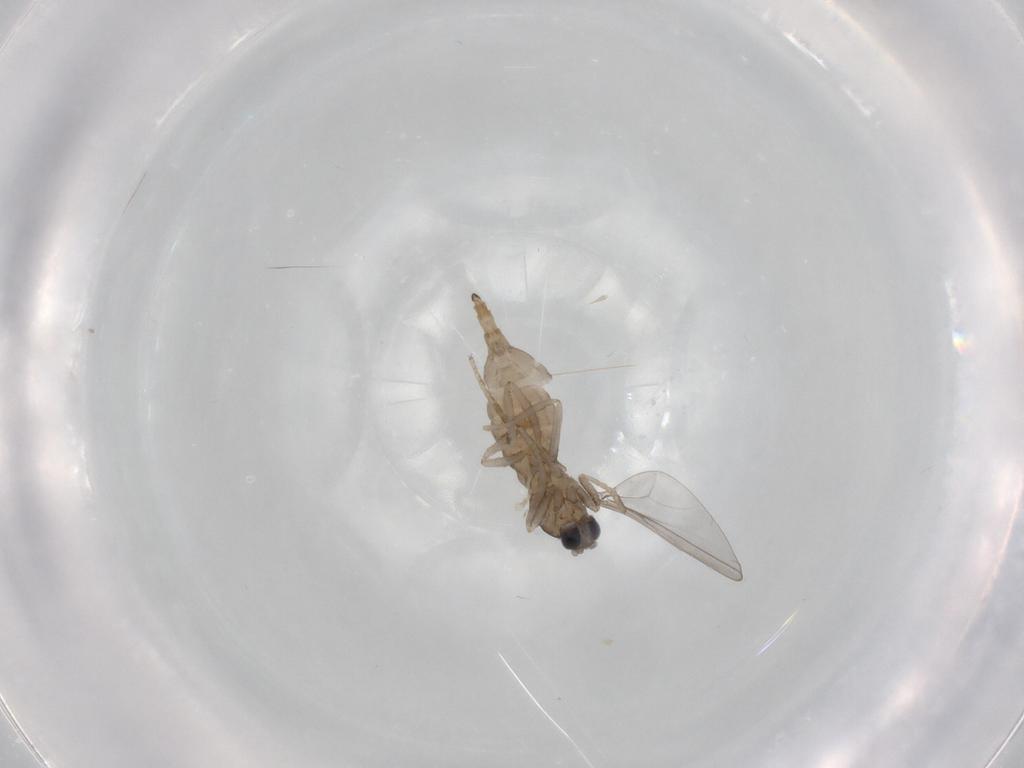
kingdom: Animalia
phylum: Arthropoda
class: Insecta
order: Diptera
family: Cecidomyiidae
